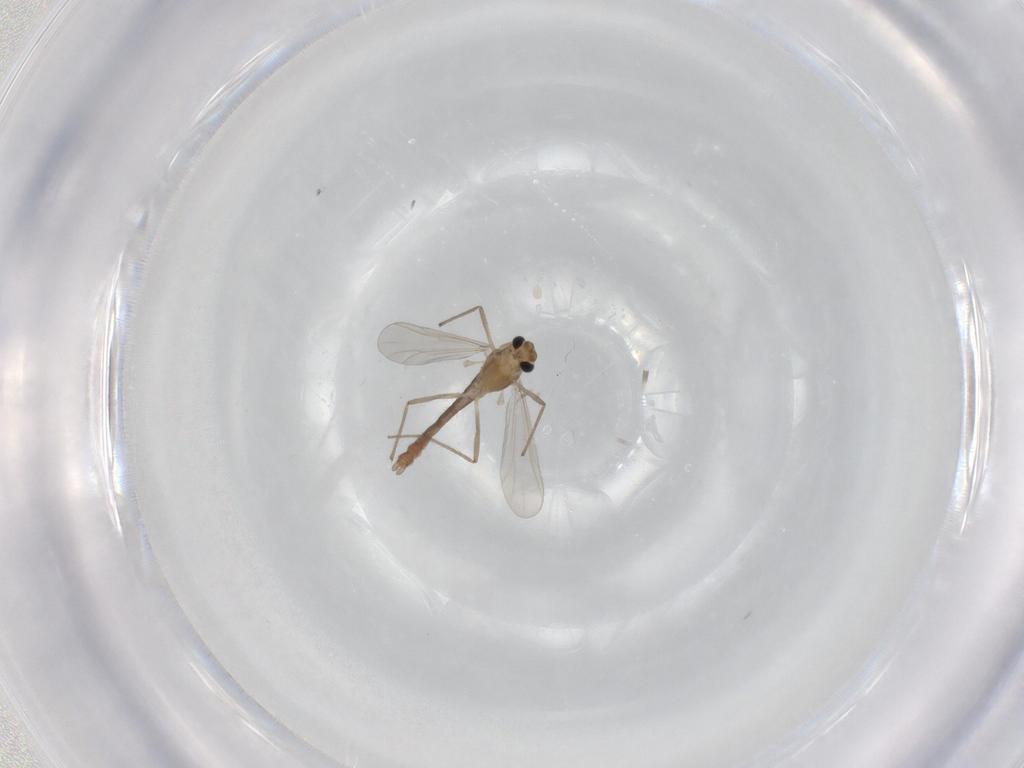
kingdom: Animalia
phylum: Arthropoda
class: Insecta
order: Diptera
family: Chironomidae
